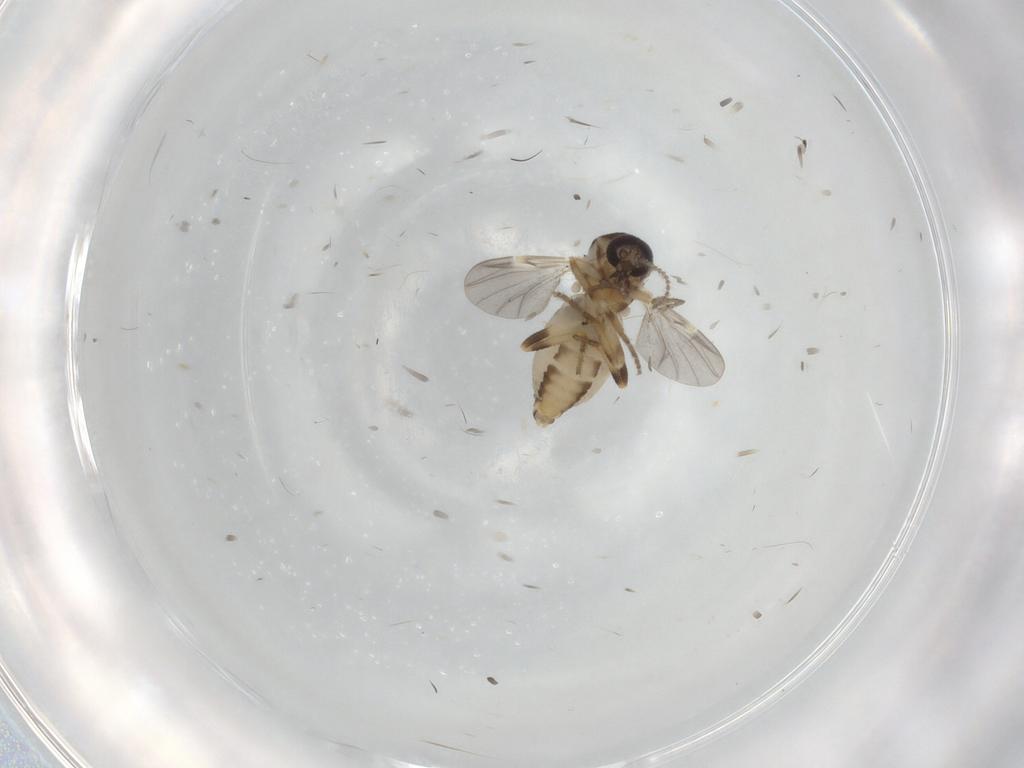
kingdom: Animalia
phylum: Arthropoda
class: Insecta
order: Diptera
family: Ceratopogonidae
